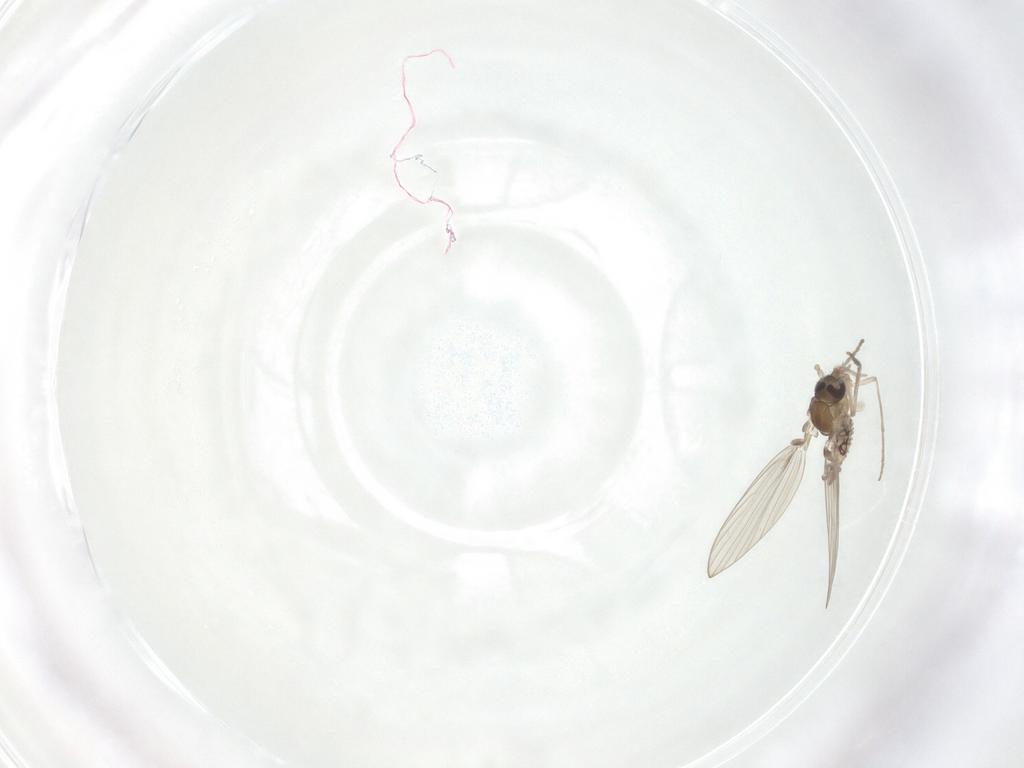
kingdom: Animalia
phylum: Arthropoda
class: Insecta
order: Diptera
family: Psychodidae
